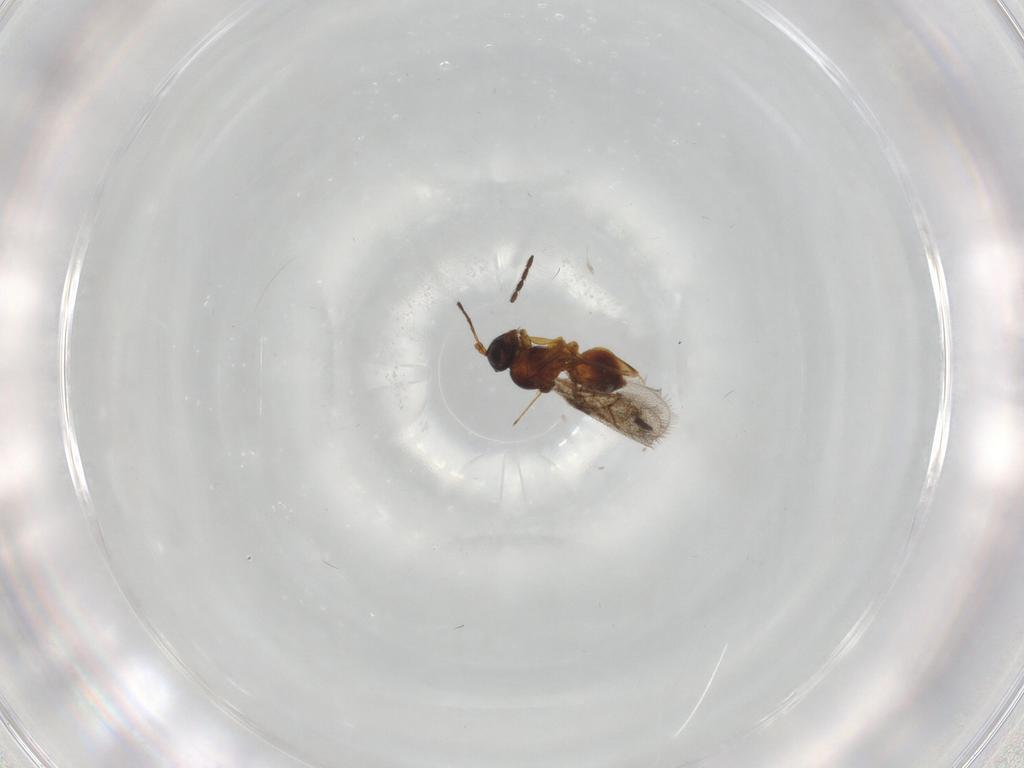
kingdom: Animalia
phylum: Arthropoda
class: Insecta
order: Hymenoptera
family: Figitidae
